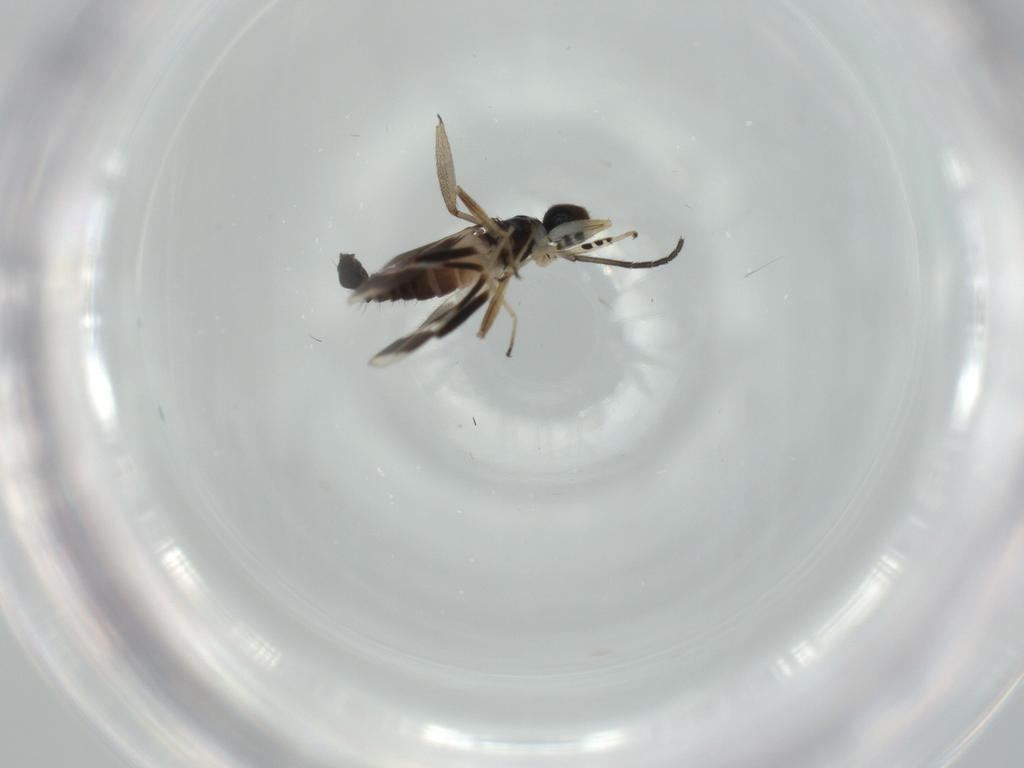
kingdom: Animalia
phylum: Arthropoda
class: Insecta
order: Diptera
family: Hybotidae
